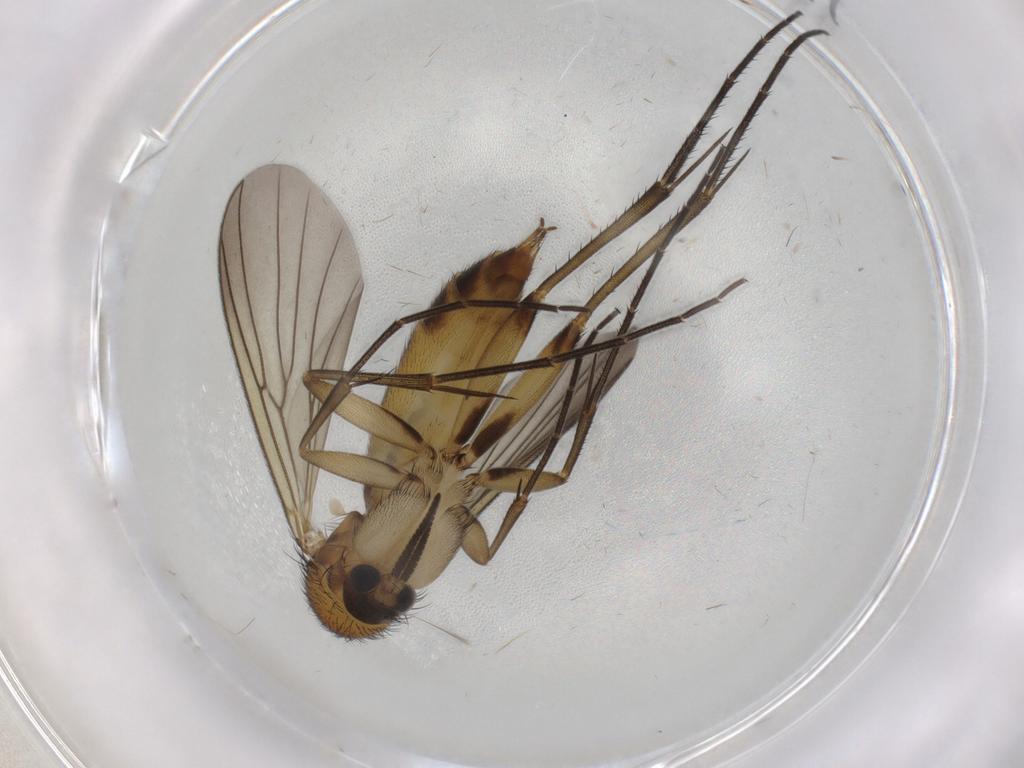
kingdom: Animalia
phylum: Arthropoda
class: Insecta
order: Diptera
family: Mycetophilidae
